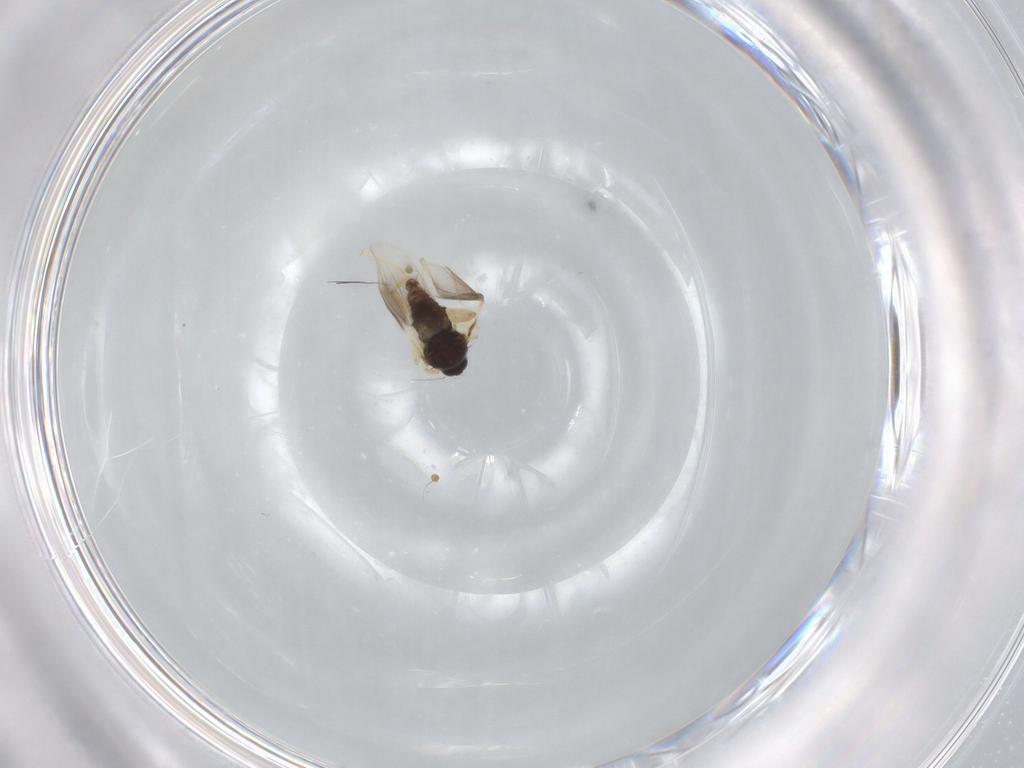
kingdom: Animalia
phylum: Arthropoda
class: Insecta
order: Diptera
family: Hybotidae
